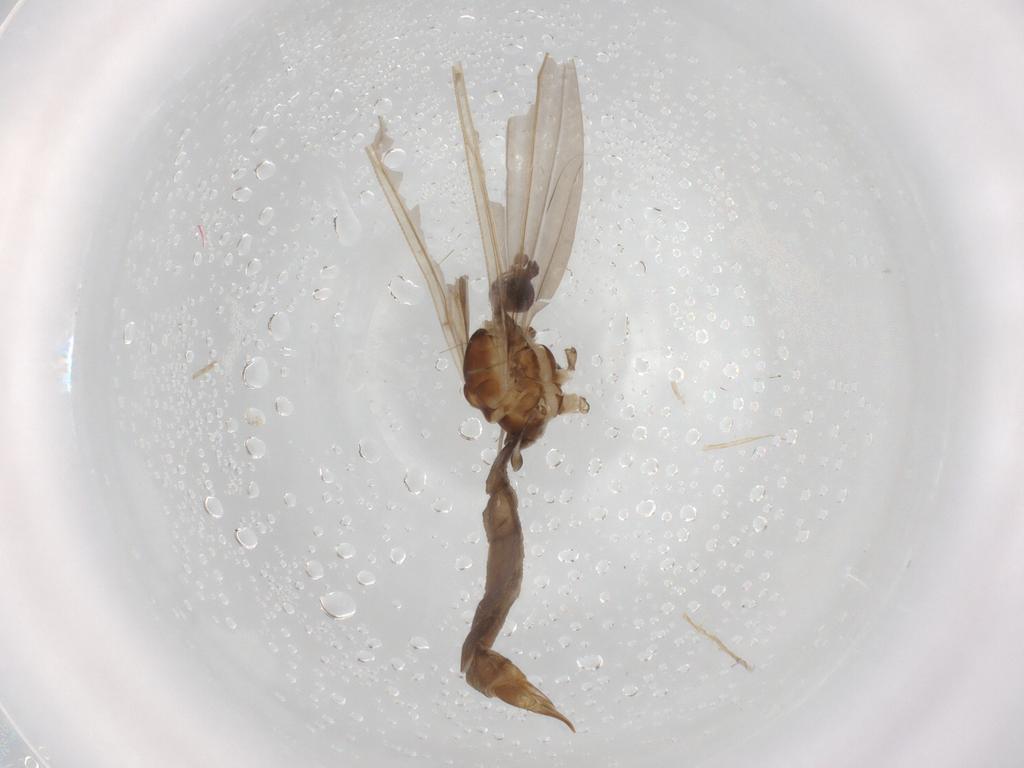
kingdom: Animalia
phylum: Arthropoda
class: Insecta
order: Diptera
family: Limoniidae
